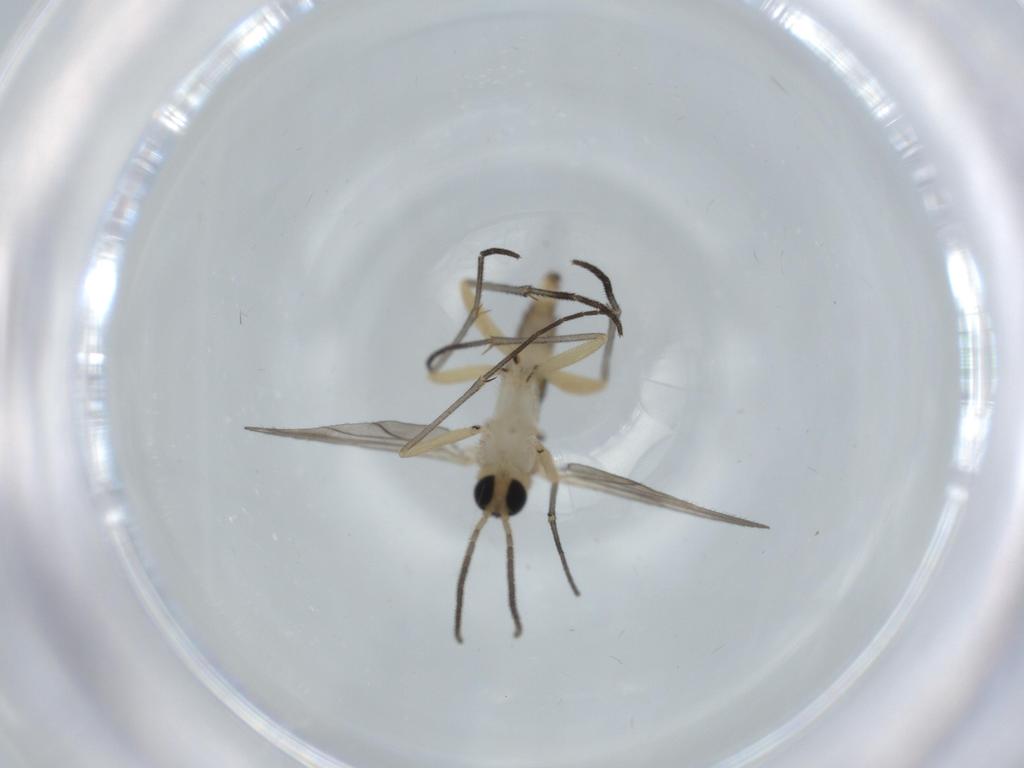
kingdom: Animalia
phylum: Arthropoda
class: Insecta
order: Diptera
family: Sciaridae
